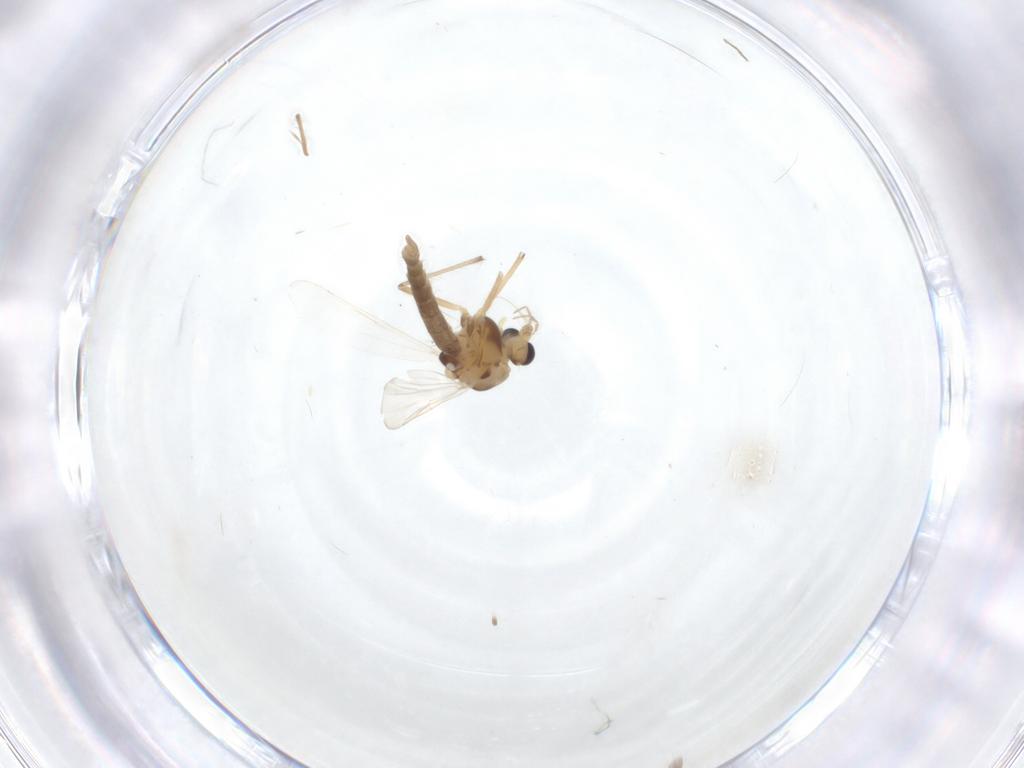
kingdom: Animalia
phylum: Arthropoda
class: Insecta
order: Diptera
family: Chironomidae
